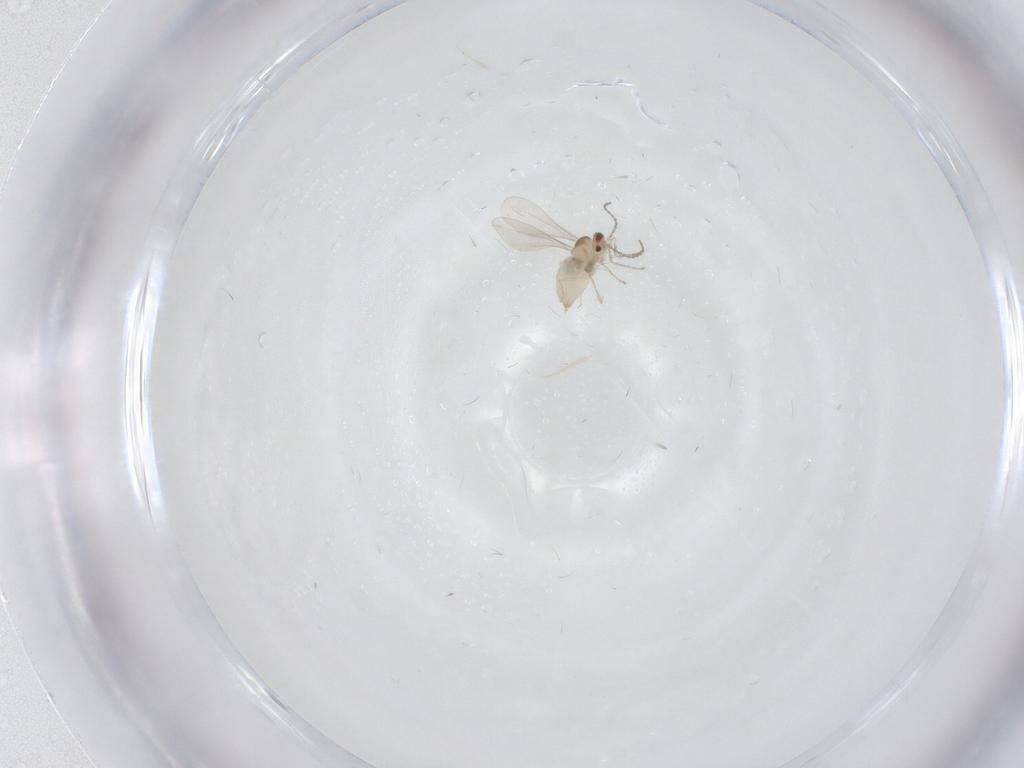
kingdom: Animalia
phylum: Arthropoda
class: Insecta
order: Diptera
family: Cecidomyiidae
